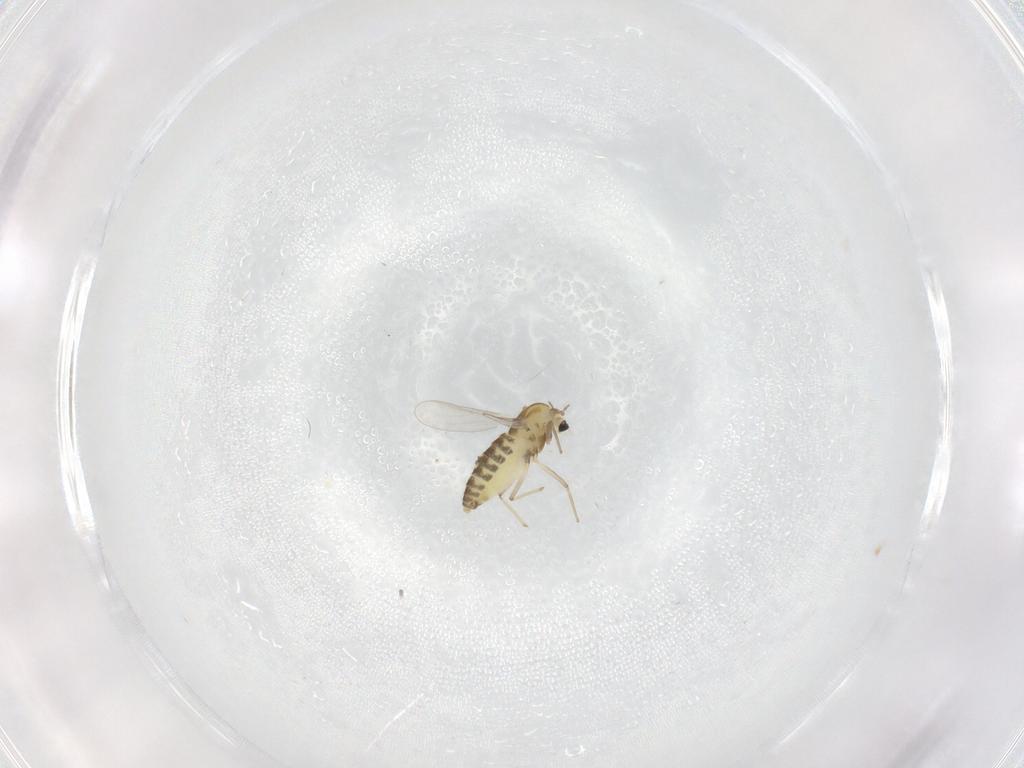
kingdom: Animalia
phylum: Arthropoda
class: Insecta
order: Diptera
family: Chironomidae
